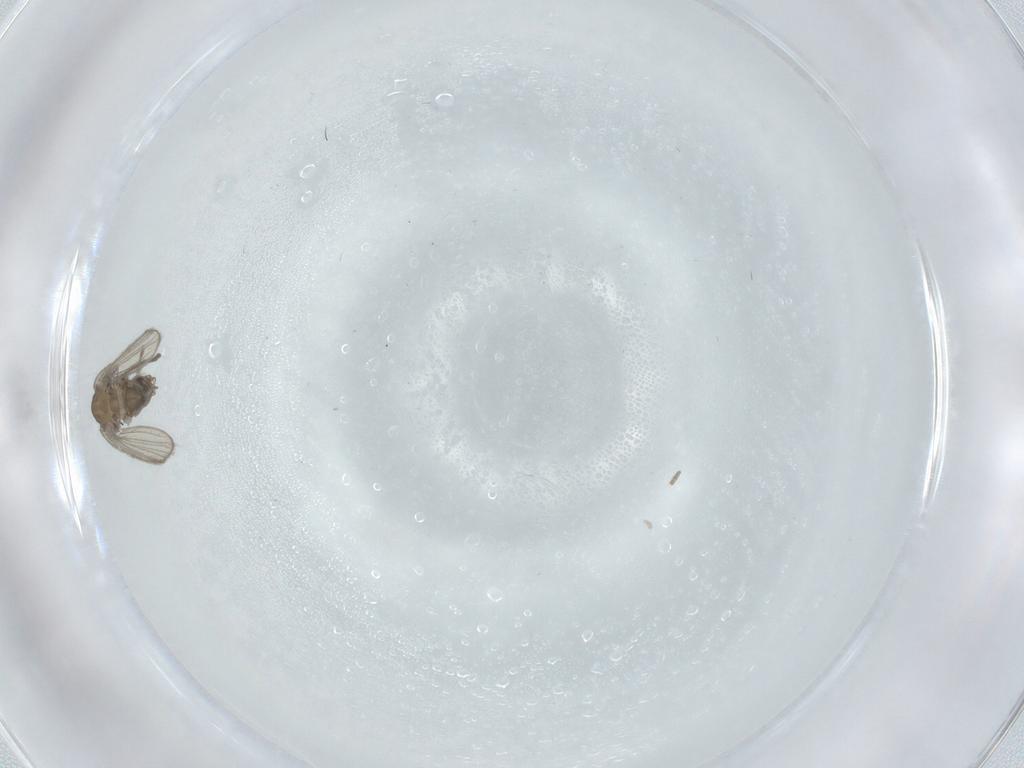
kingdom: Animalia
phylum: Arthropoda
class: Insecta
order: Diptera
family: Psychodidae
